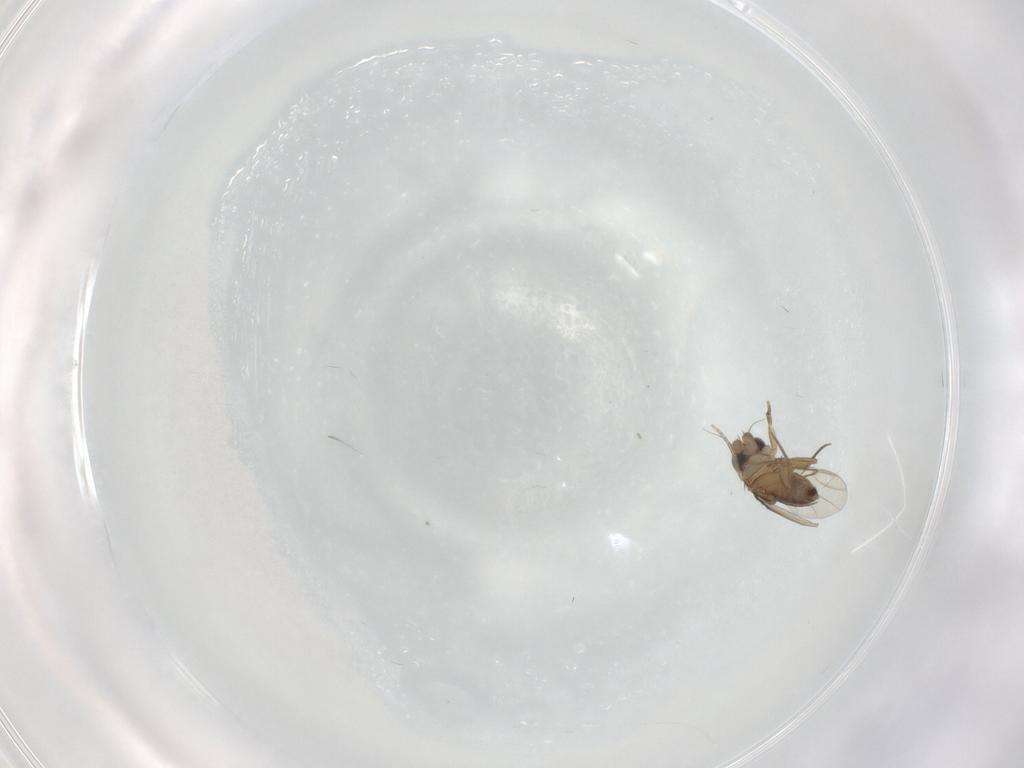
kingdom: Animalia
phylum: Arthropoda
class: Insecta
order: Diptera
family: Phoridae
